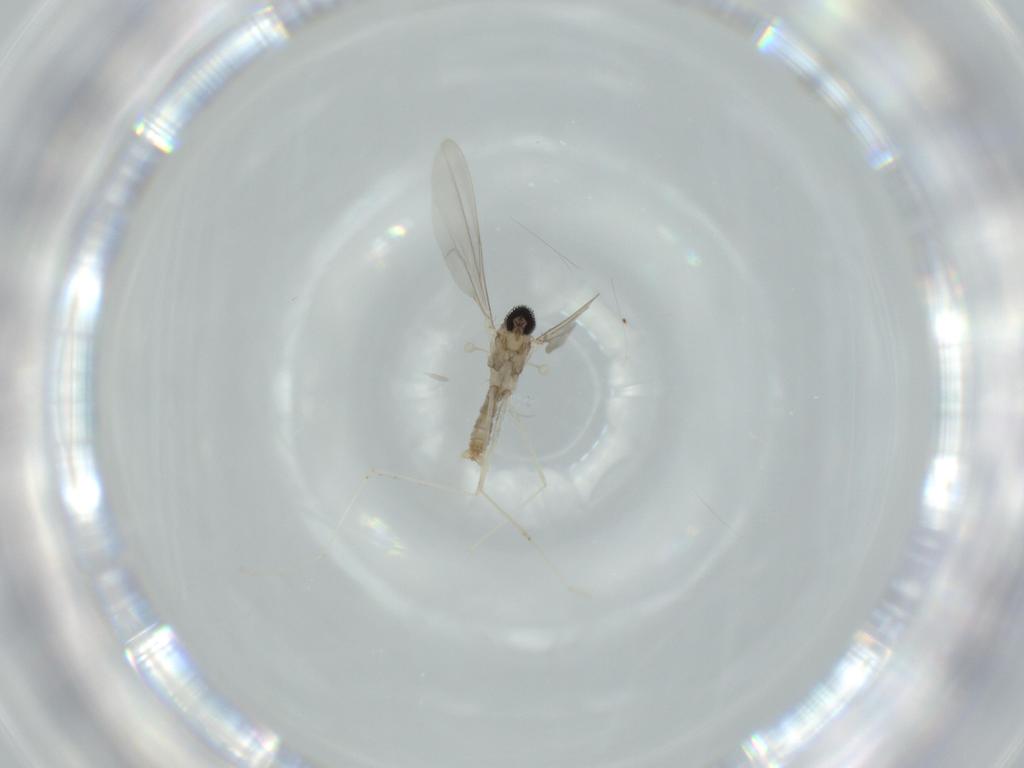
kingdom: Animalia
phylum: Arthropoda
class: Insecta
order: Diptera
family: Cecidomyiidae
